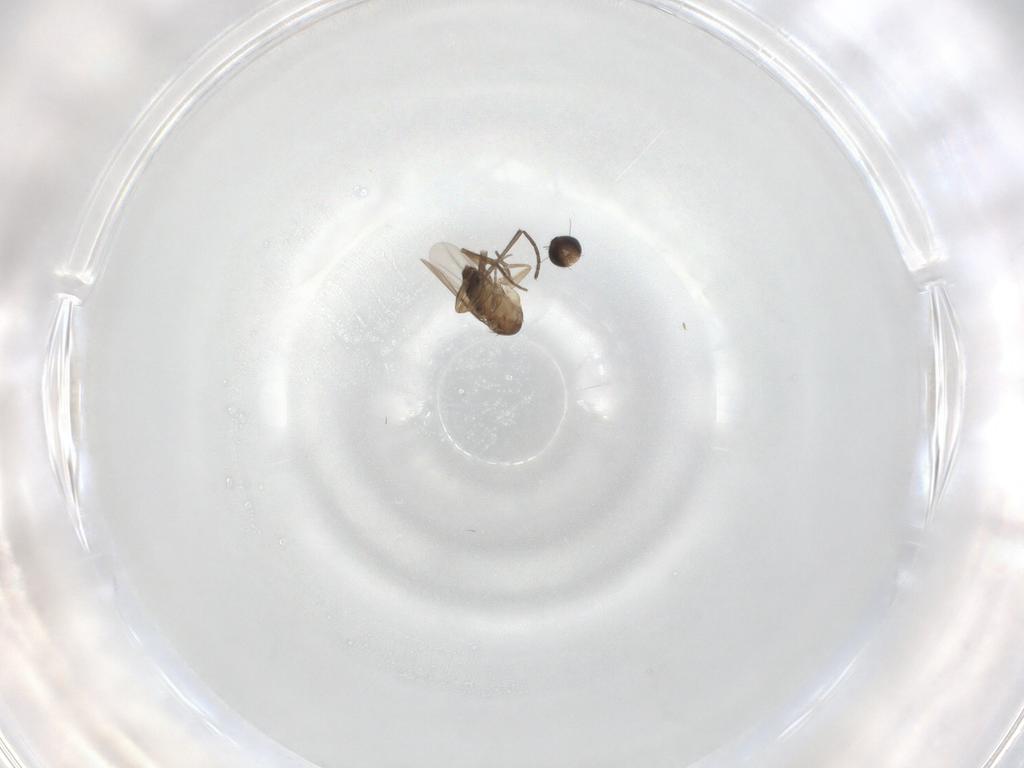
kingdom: Animalia
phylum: Arthropoda
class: Insecta
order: Diptera
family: Phoridae
